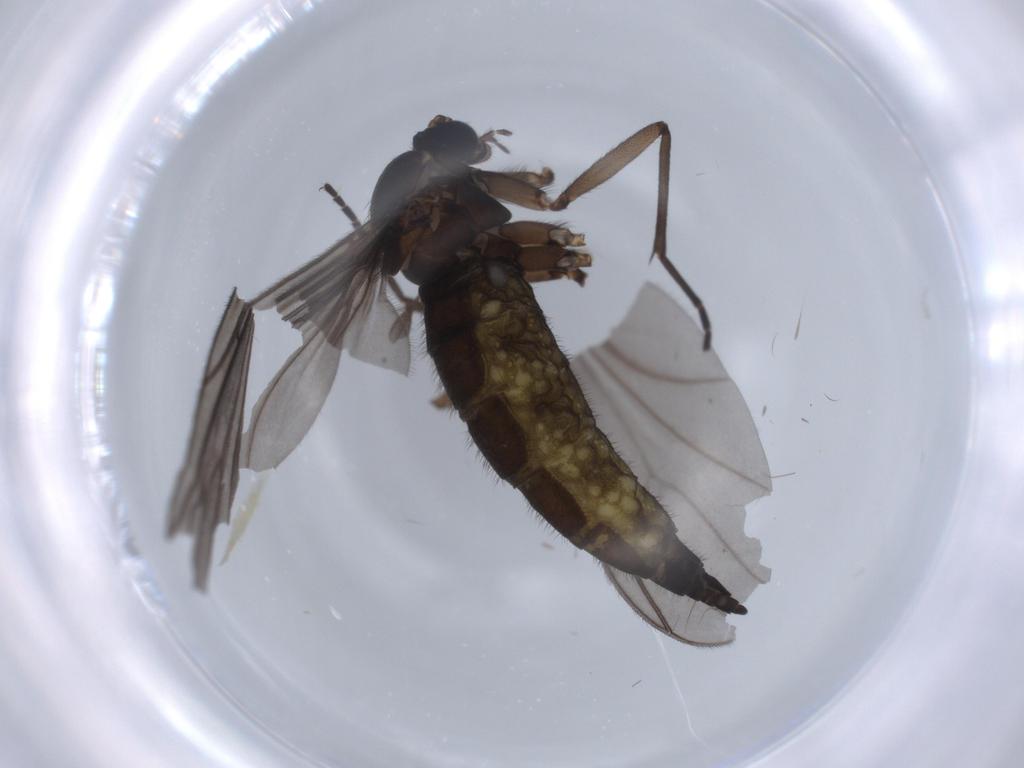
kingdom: Animalia
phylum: Arthropoda
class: Insecta
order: Diptera
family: Sciaridae
